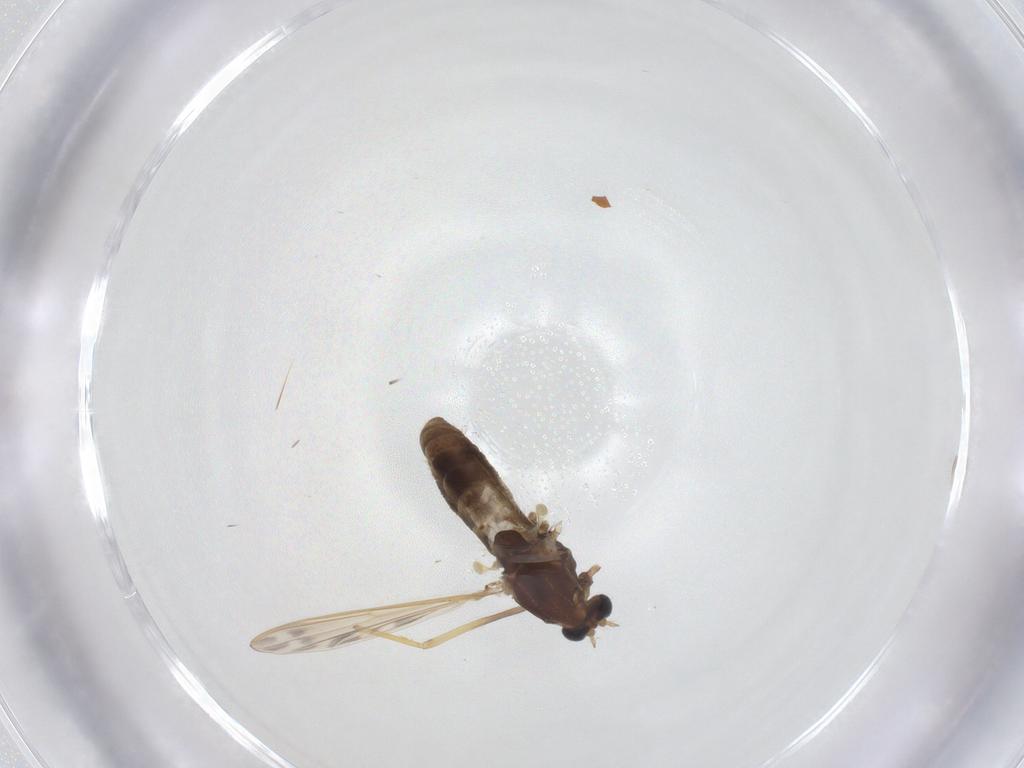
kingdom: Animalia
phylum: Arthropoda
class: Insecta
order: Diptera
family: Chironomidae
